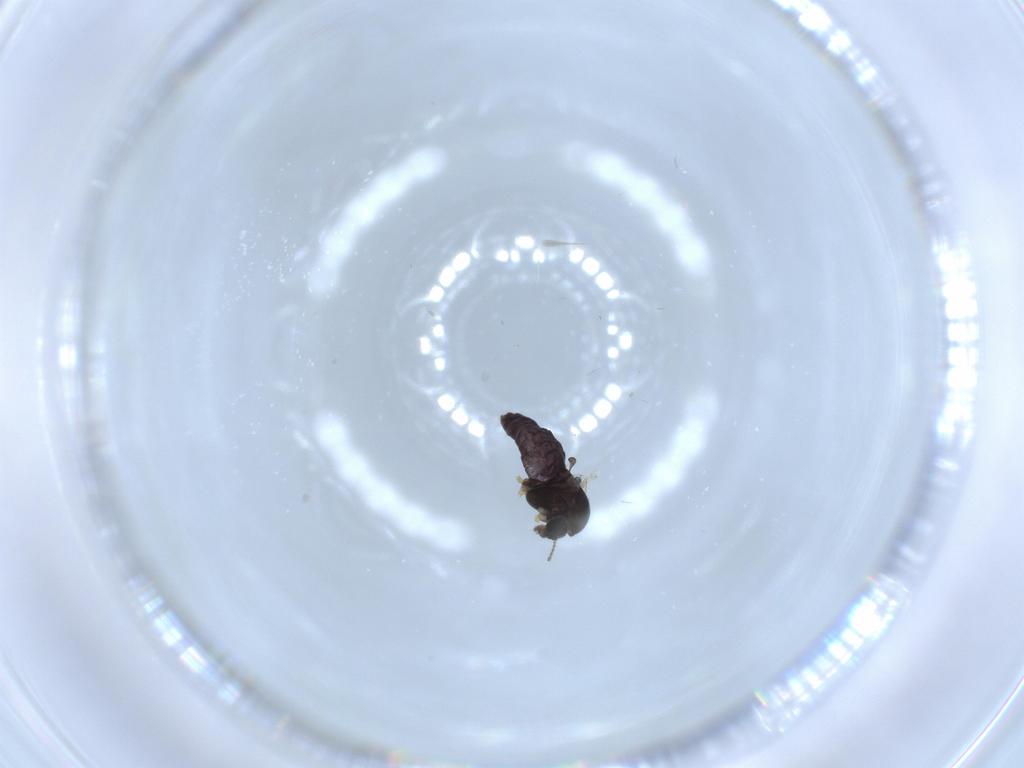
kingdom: Animalia
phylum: Arthropoda
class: Insecta
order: Diptera
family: Chironomidae
